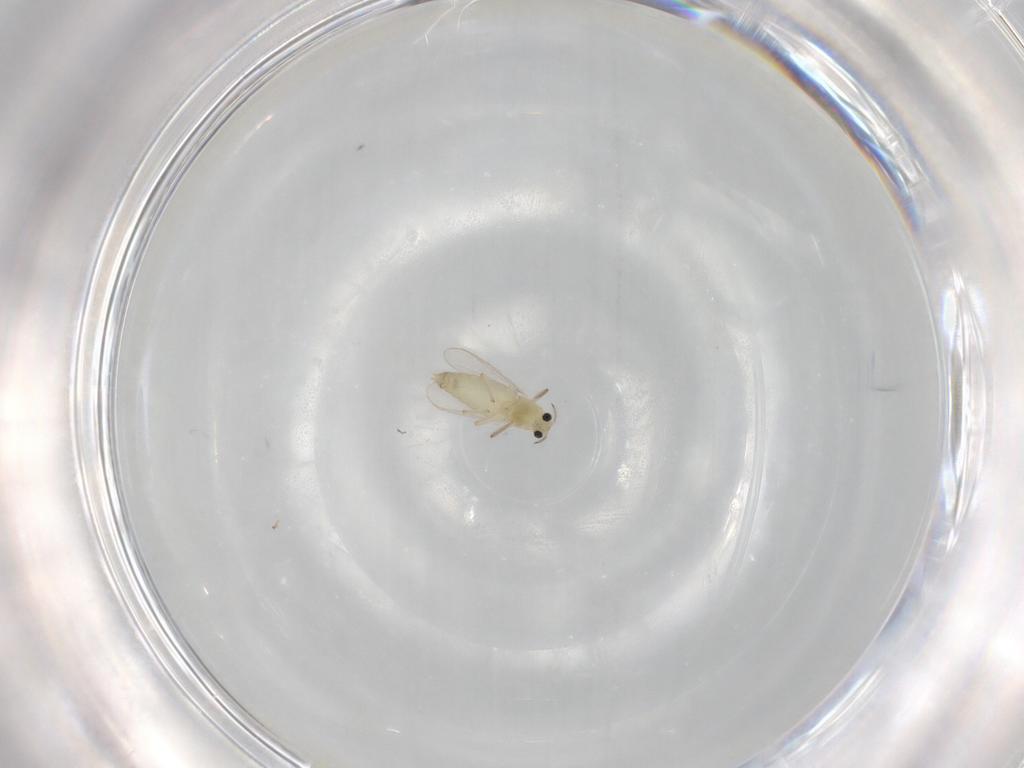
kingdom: Animalia
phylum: Arthropoda
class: Insecta
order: Diptera
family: Chironomidae
